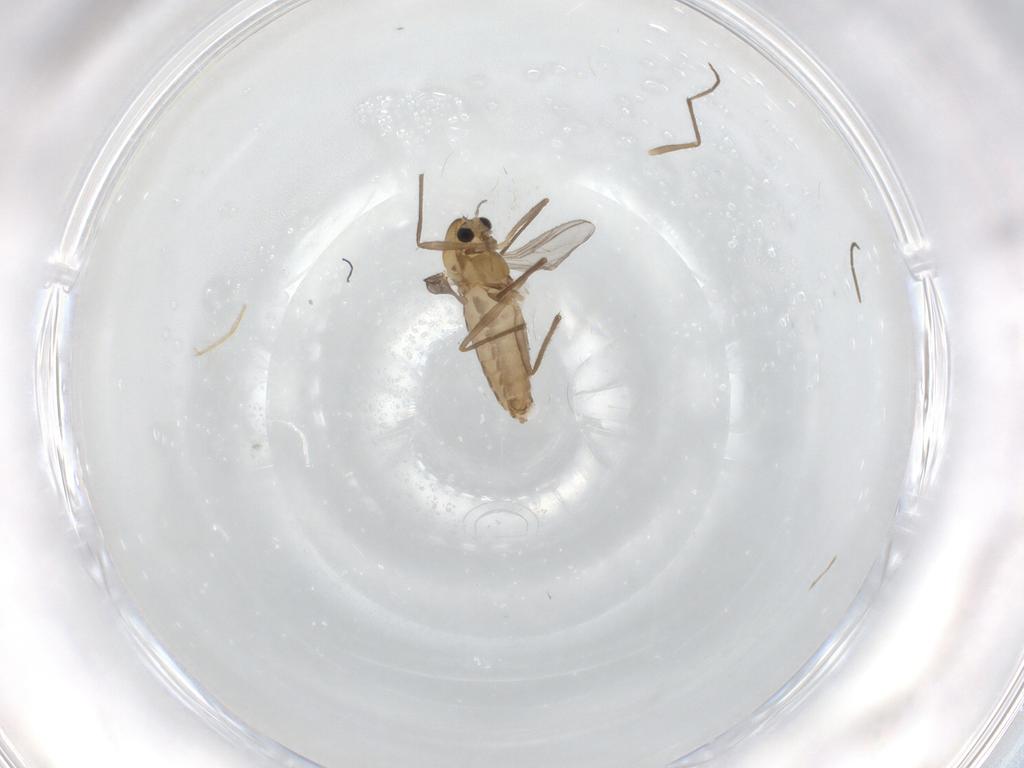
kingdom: Animalia
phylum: Arthropoda
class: Insecta
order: Diptera
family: Chironomidae
